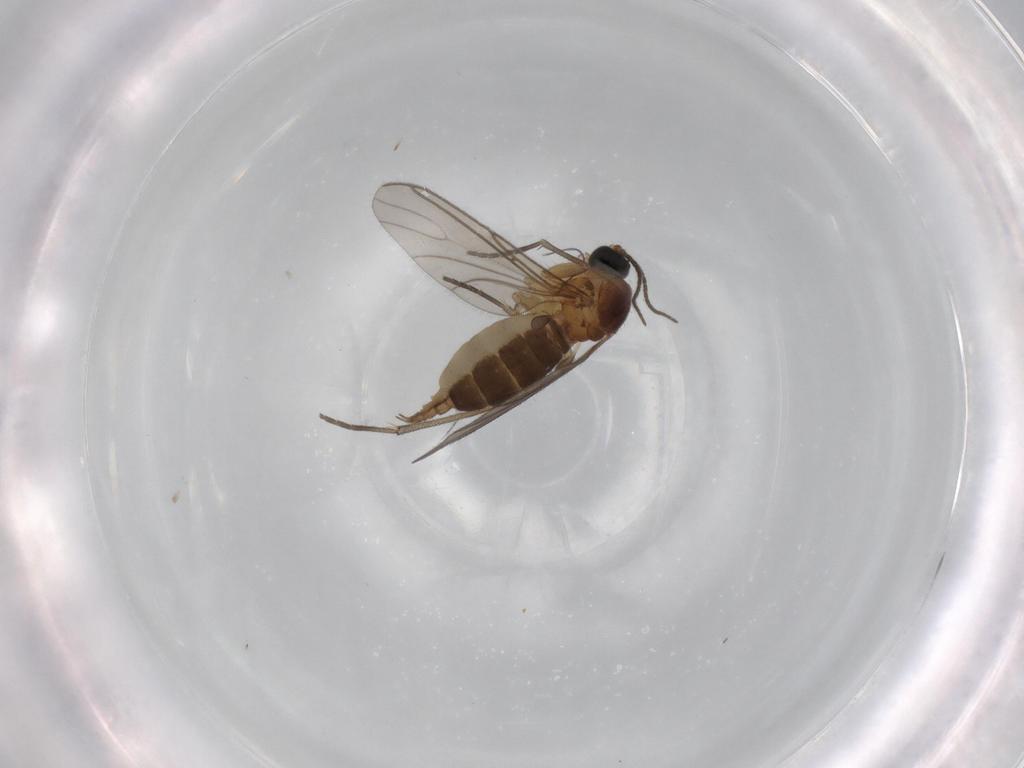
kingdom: Animalia
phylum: Arthropoda
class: Insecta
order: Diptera
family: Sciaridae
